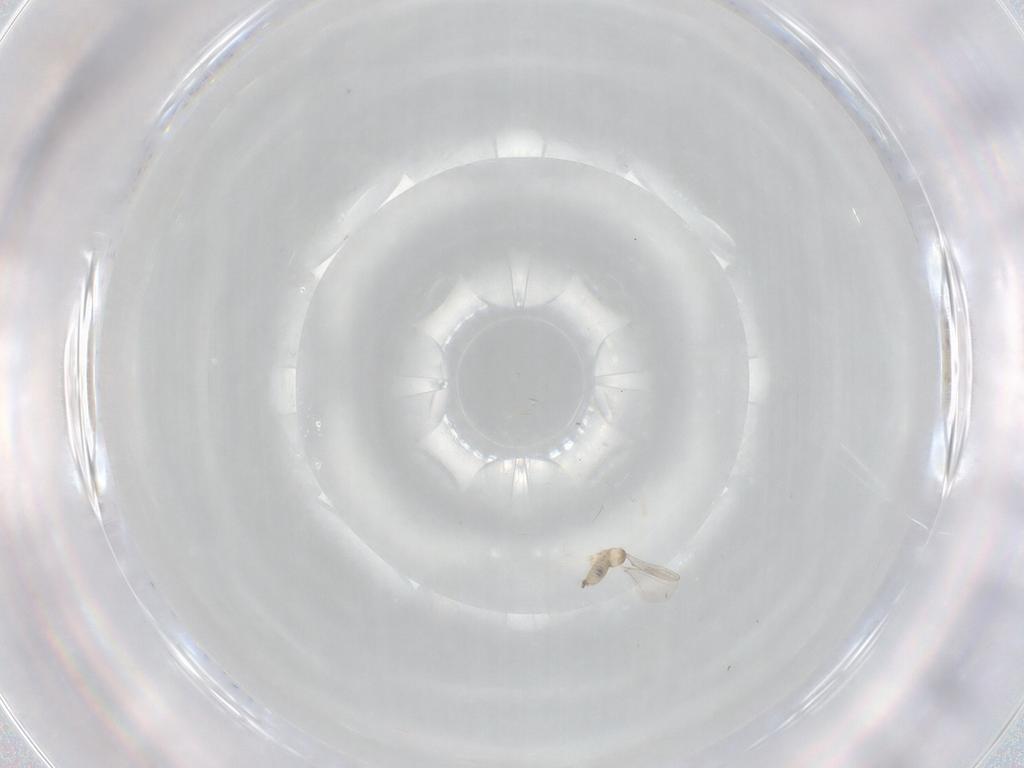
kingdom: Animalia
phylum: Arthropoda
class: Insecta
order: Diptera
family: Cecidomyiidae
